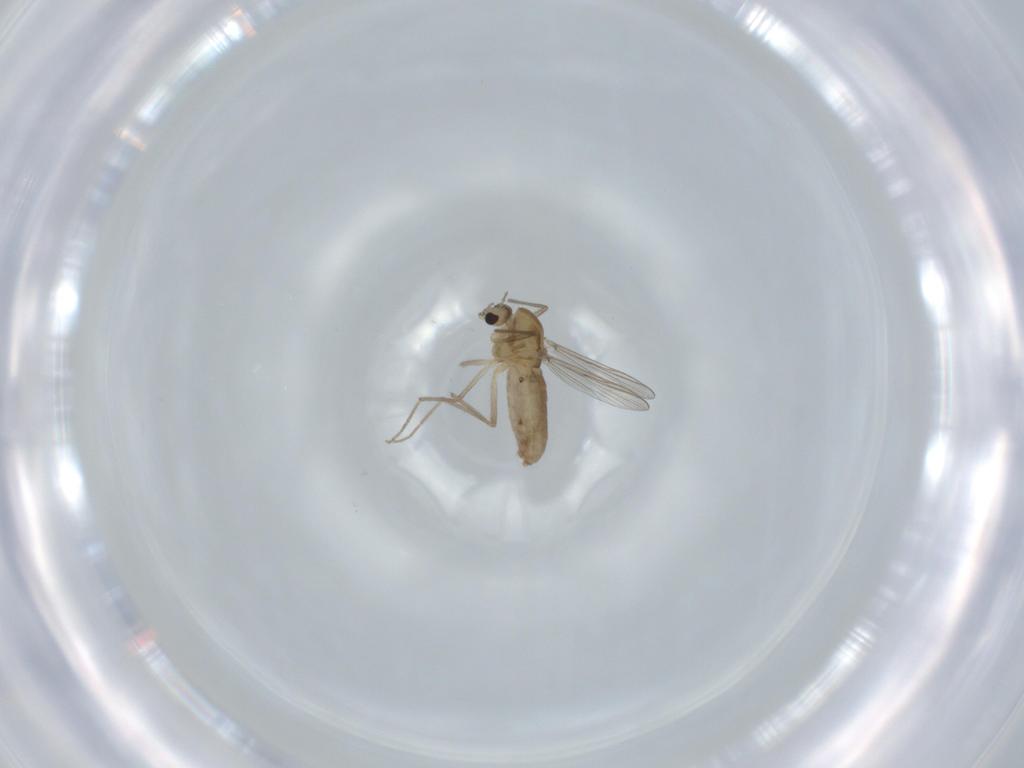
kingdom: Animalia
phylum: Arthropoda
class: Insecta
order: Diptera
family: Chironomidae
